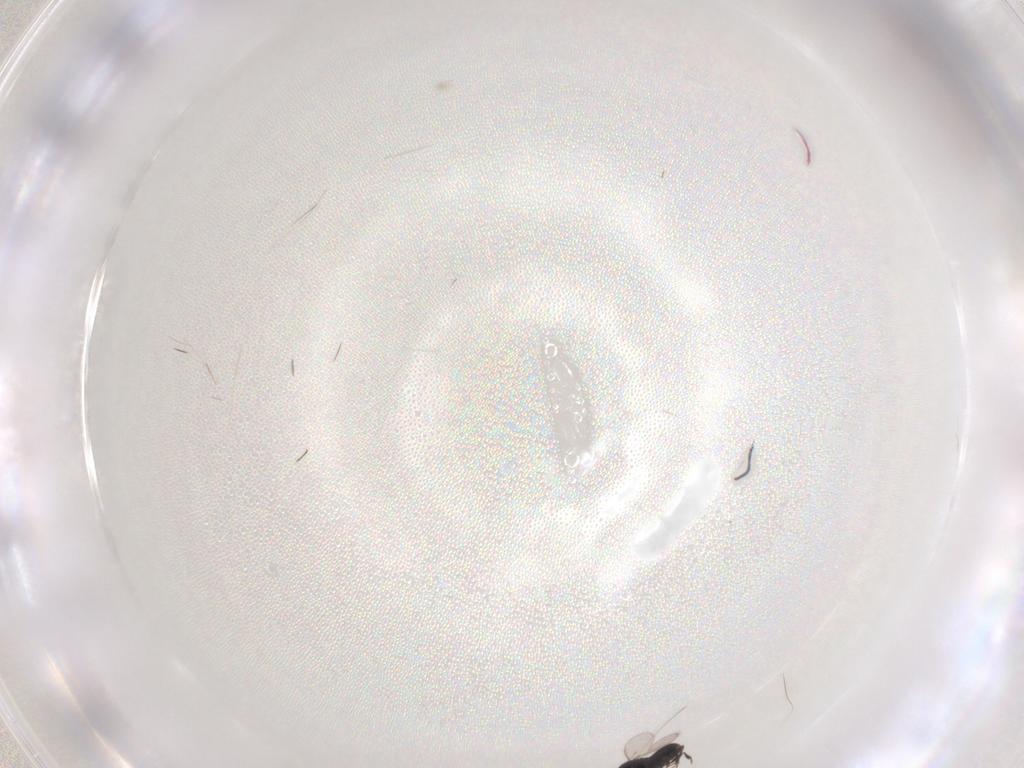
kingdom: Animalia
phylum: Arthropoda
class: Insecta
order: Hymenoptera
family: Scelionidae
